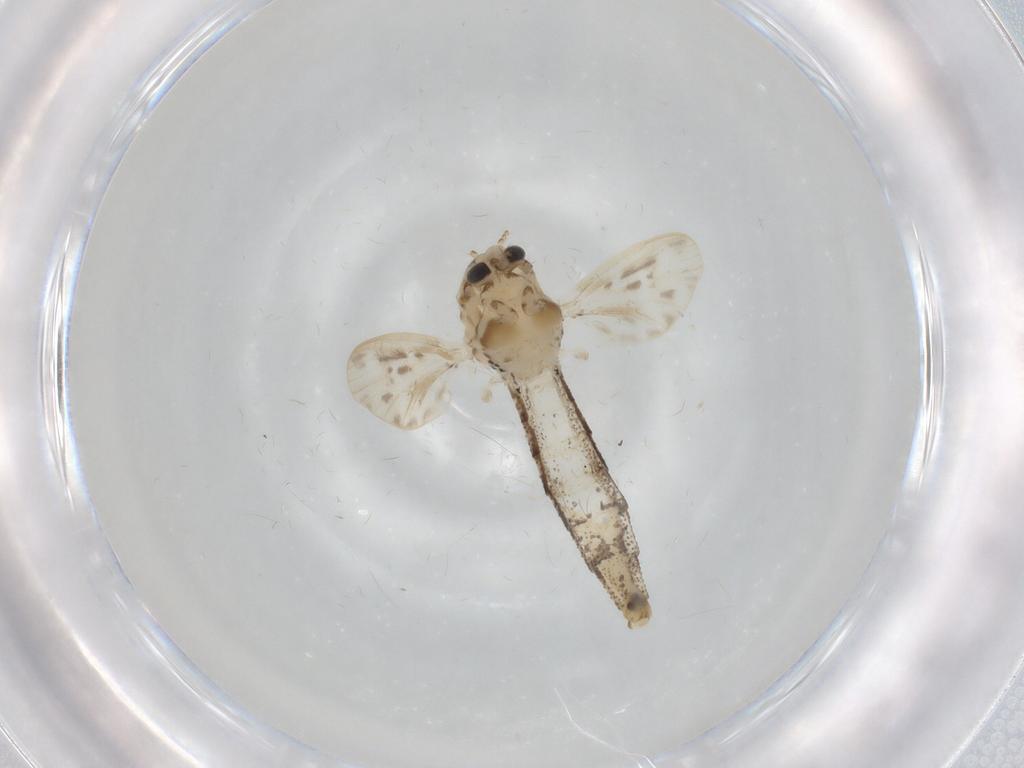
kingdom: Animalia
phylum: Arthropoda
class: Insecta
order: Diptera
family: Chaoboridae
